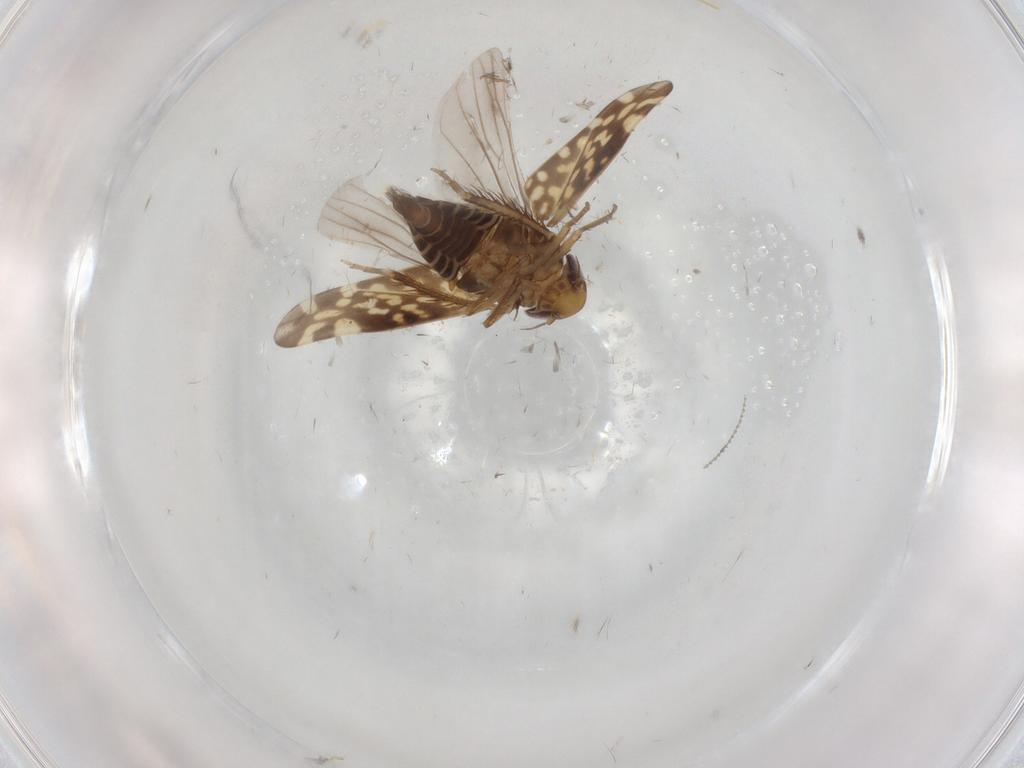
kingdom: Animalia
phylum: Arthropoda
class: Insecta
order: Hemiptera
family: Cicadellidae
